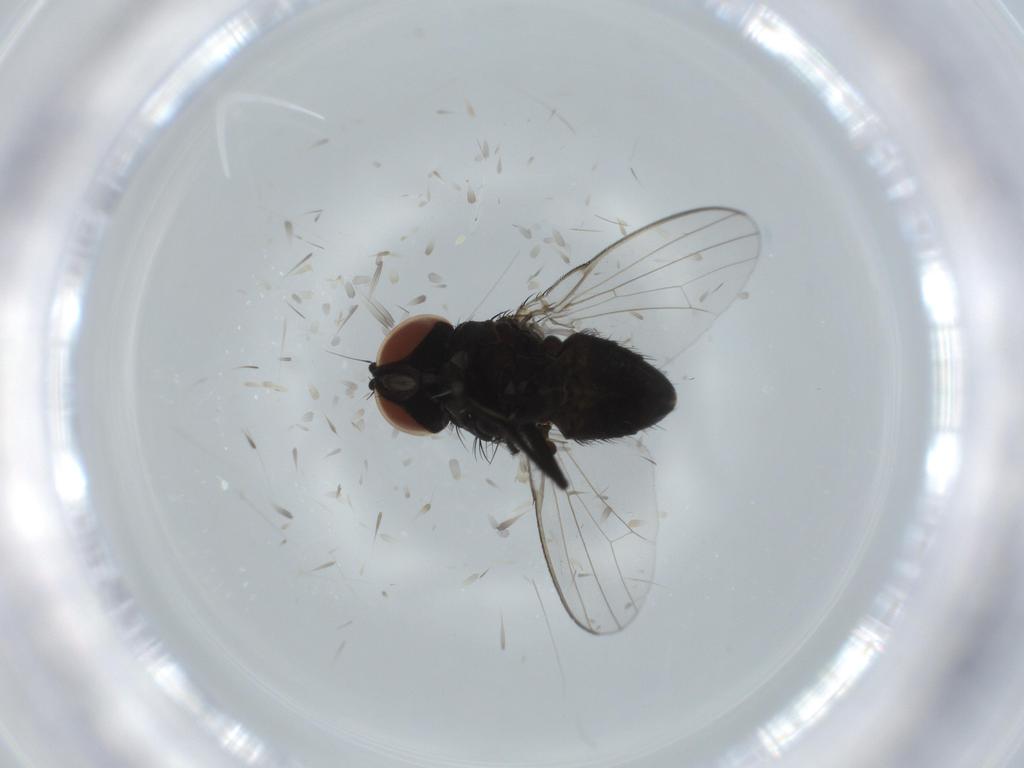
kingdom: Animalia
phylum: Arthropoda
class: Insecta
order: Diptera
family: Milichiidae
